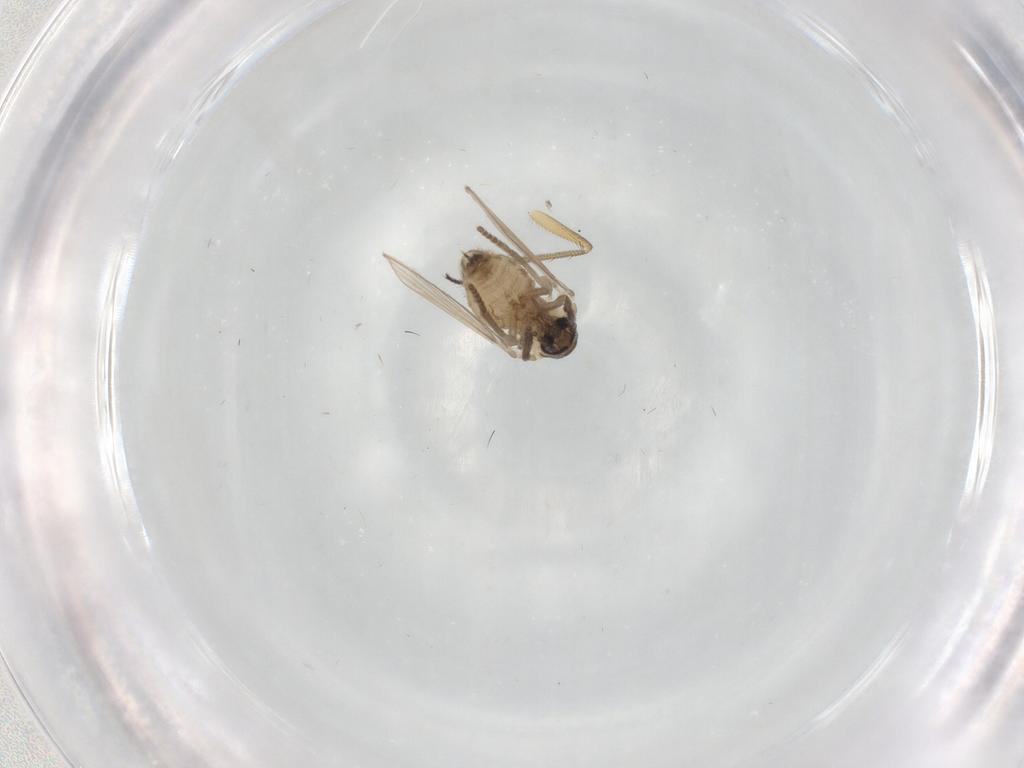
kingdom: Animalia
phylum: Arthropoda
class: Insecta
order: Diptera
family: Psychodidae
